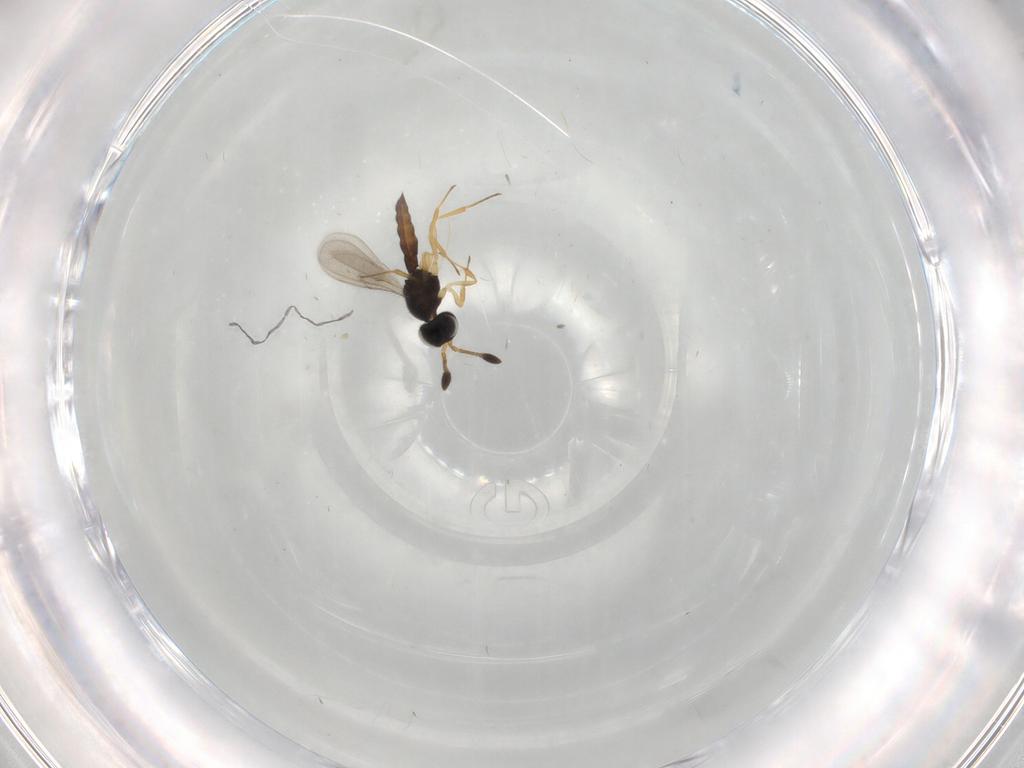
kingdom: Animalia
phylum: Arthropoda
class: Insecta
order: Hymenoptera
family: Scelionidae
